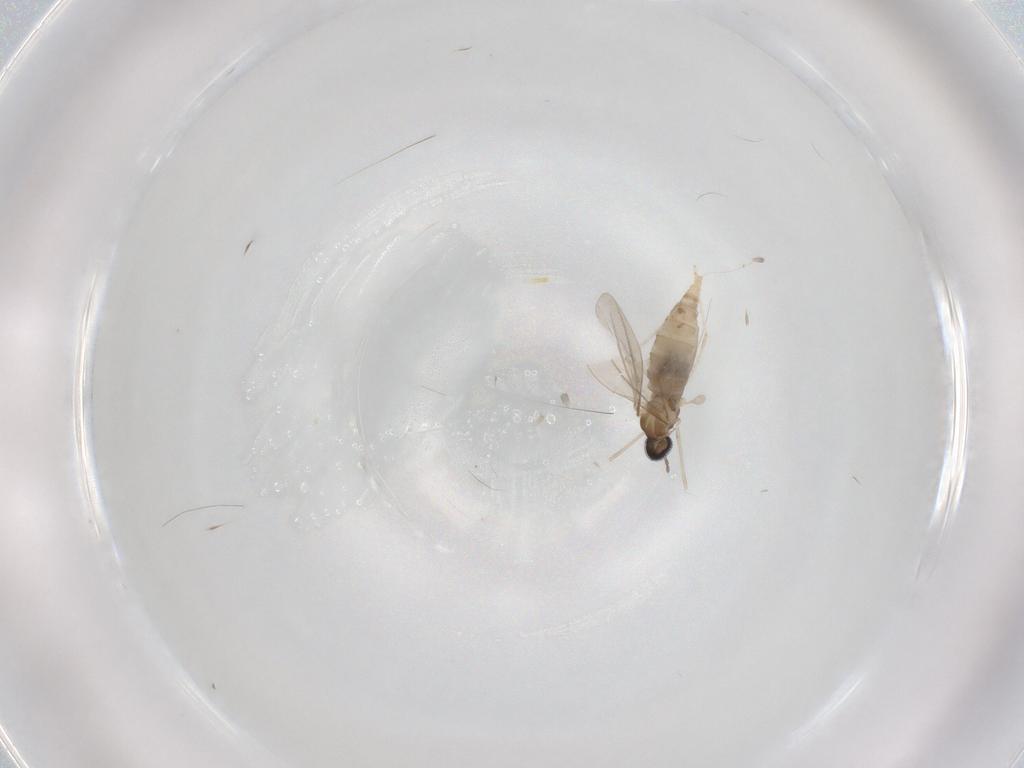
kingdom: Animalia
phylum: Arthropoda
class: Insecta
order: Diptera
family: Cecidomyiidae
